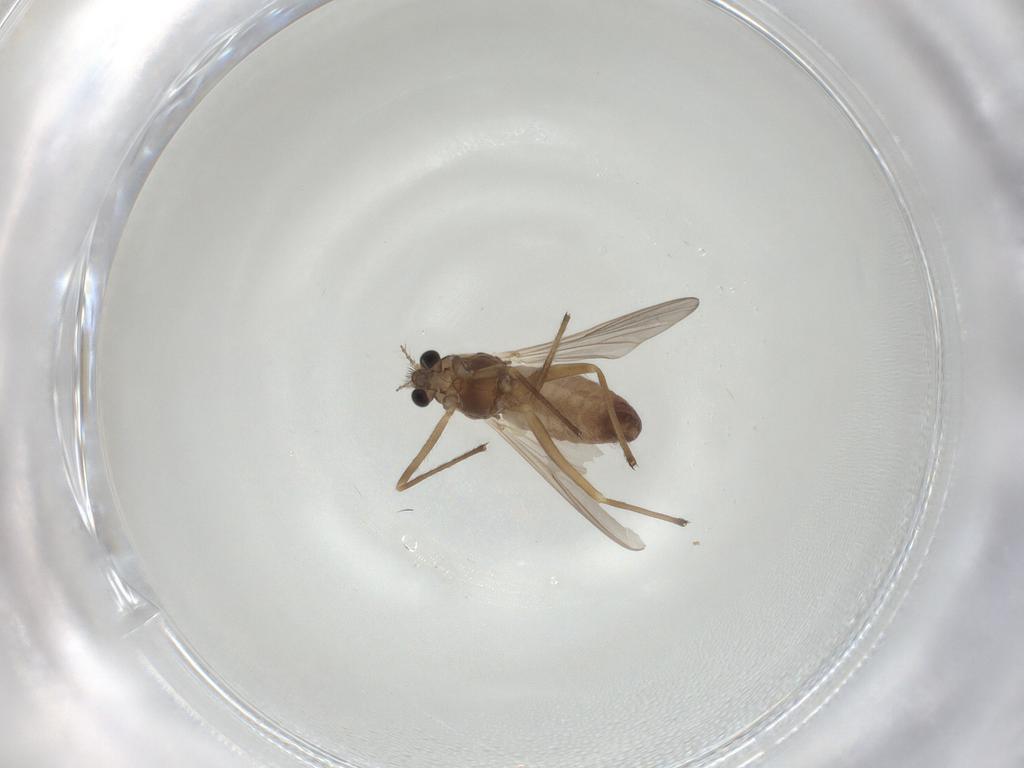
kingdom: Animalia
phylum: Arthropoda
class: Insecta
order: Diptera
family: Chironomidae
